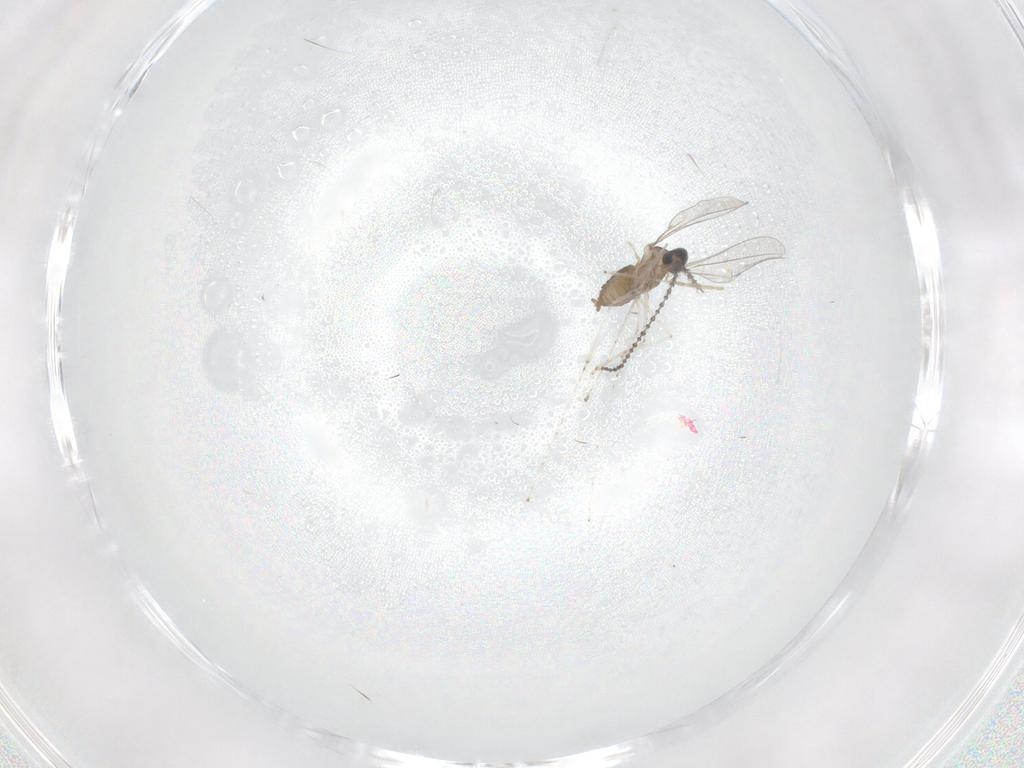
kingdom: Animalia
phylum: Arthropoda
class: Insecta
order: Diptera
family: Cecidomyiidae
